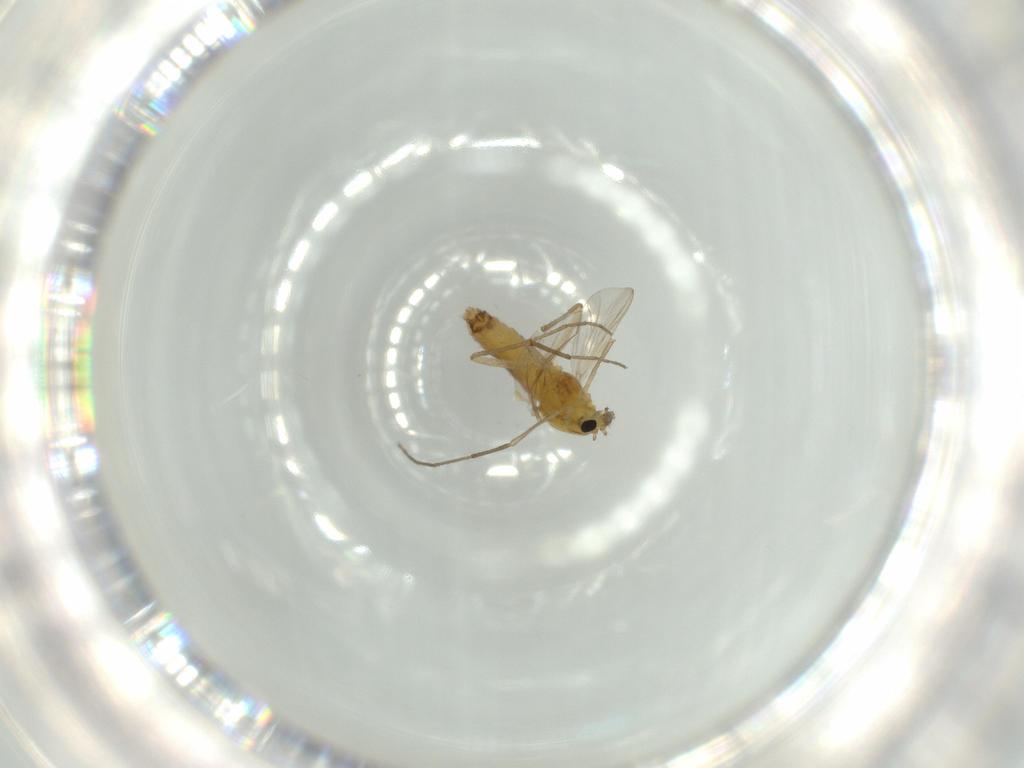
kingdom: Animalia
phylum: Arthropoda
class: Insecta
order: Diptera
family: Chironomidae
